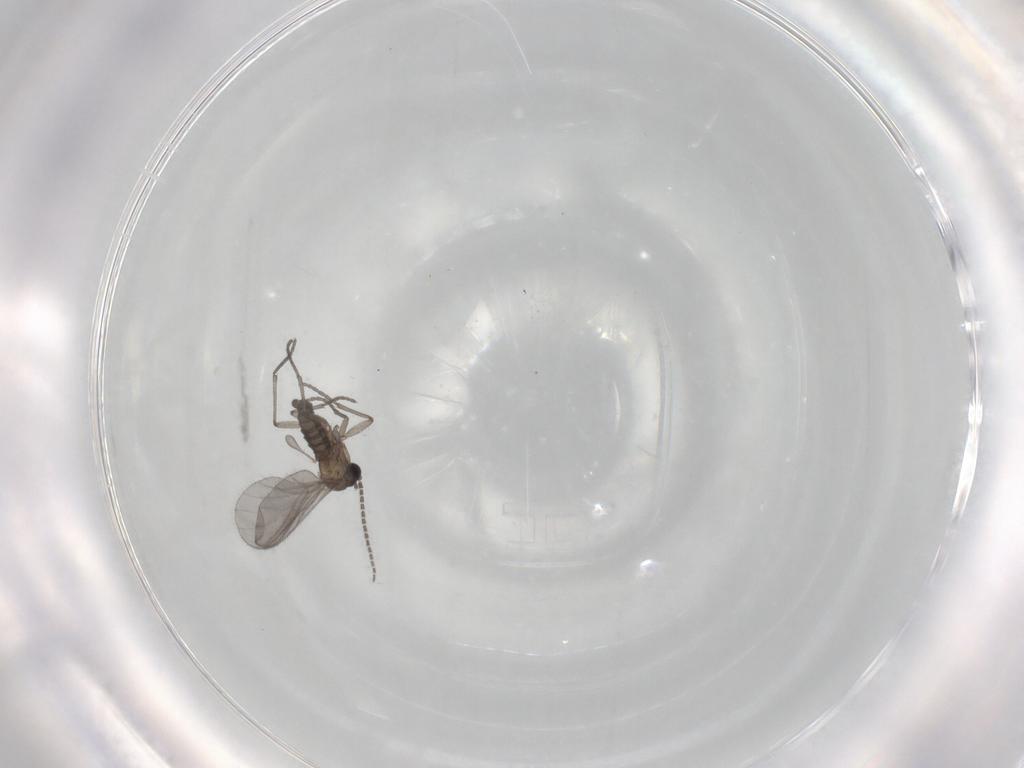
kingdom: Animalia
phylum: Arthropoda
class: Insecta
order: Diptera
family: Sciaridae
